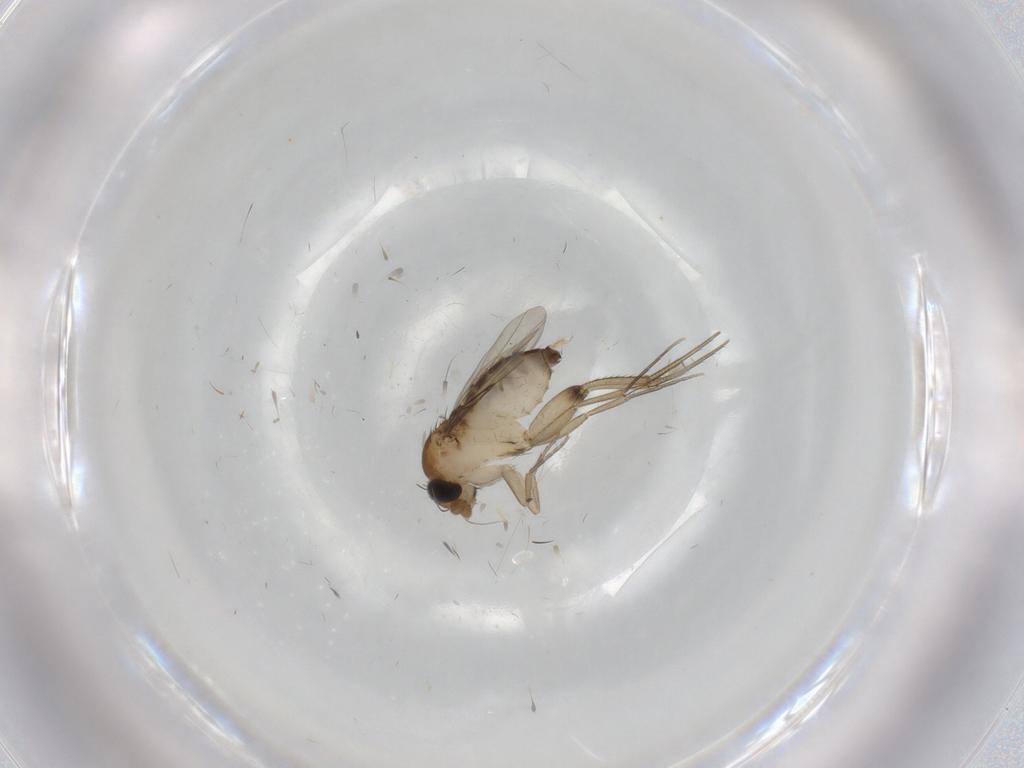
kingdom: Animalia
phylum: Arthropoda
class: Insecta
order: Diptera
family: Phoridae
